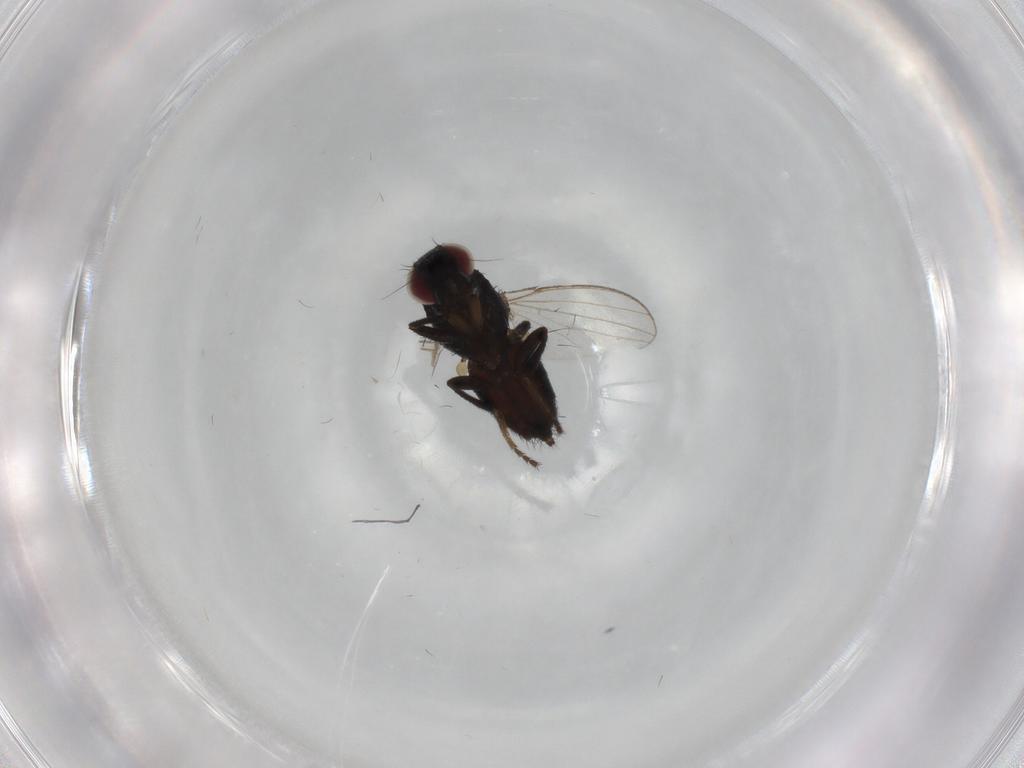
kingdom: Animalia
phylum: Arthropoda
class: Insecta
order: Diptera
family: Milichiidae
